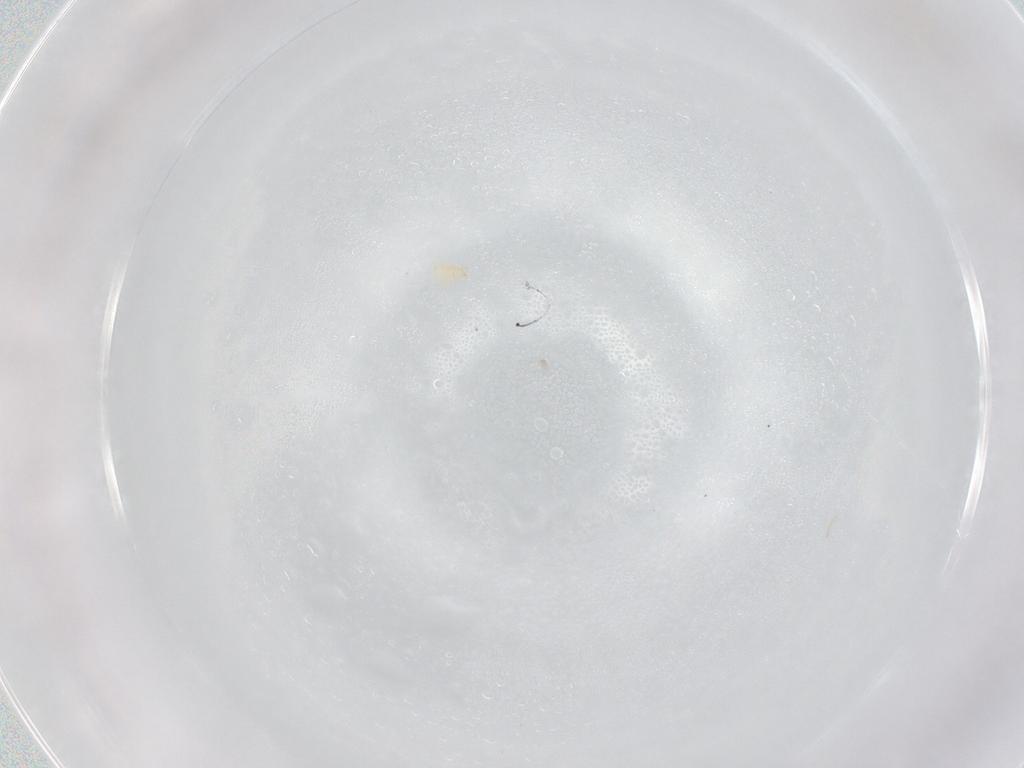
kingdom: Animalia
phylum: Arthropoda
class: Arachnida
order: Trombidiformes
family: Pygmephoridae
